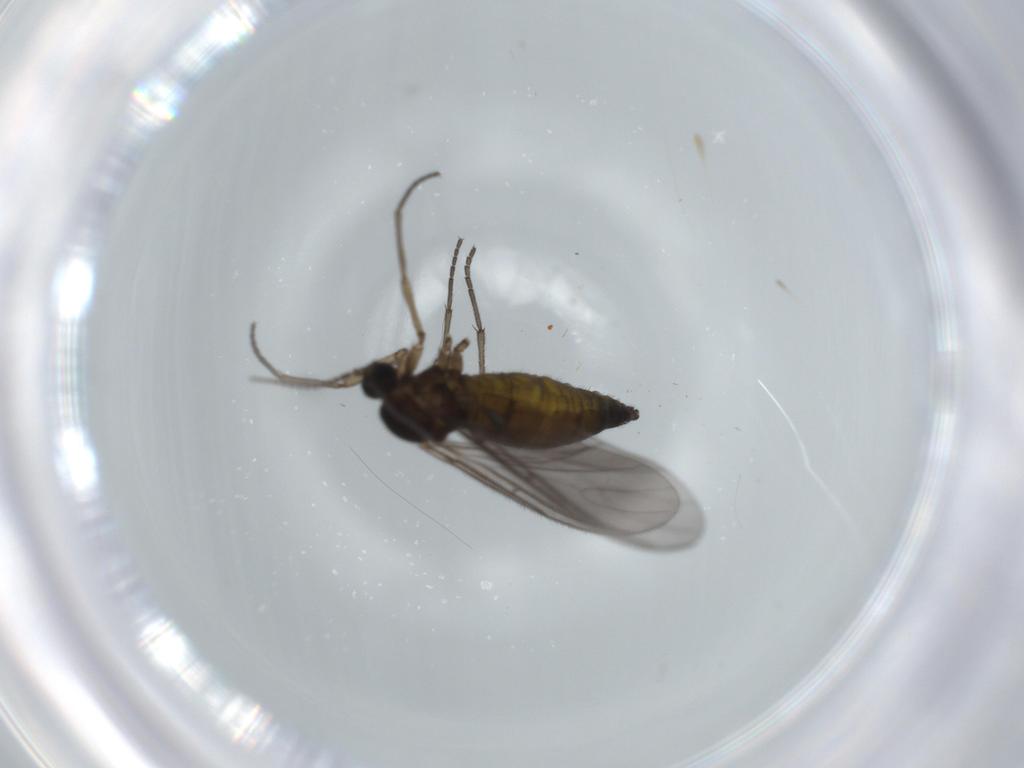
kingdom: Animalia
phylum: Arthropoda
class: Insecta
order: Diptera
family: Sciaridae
